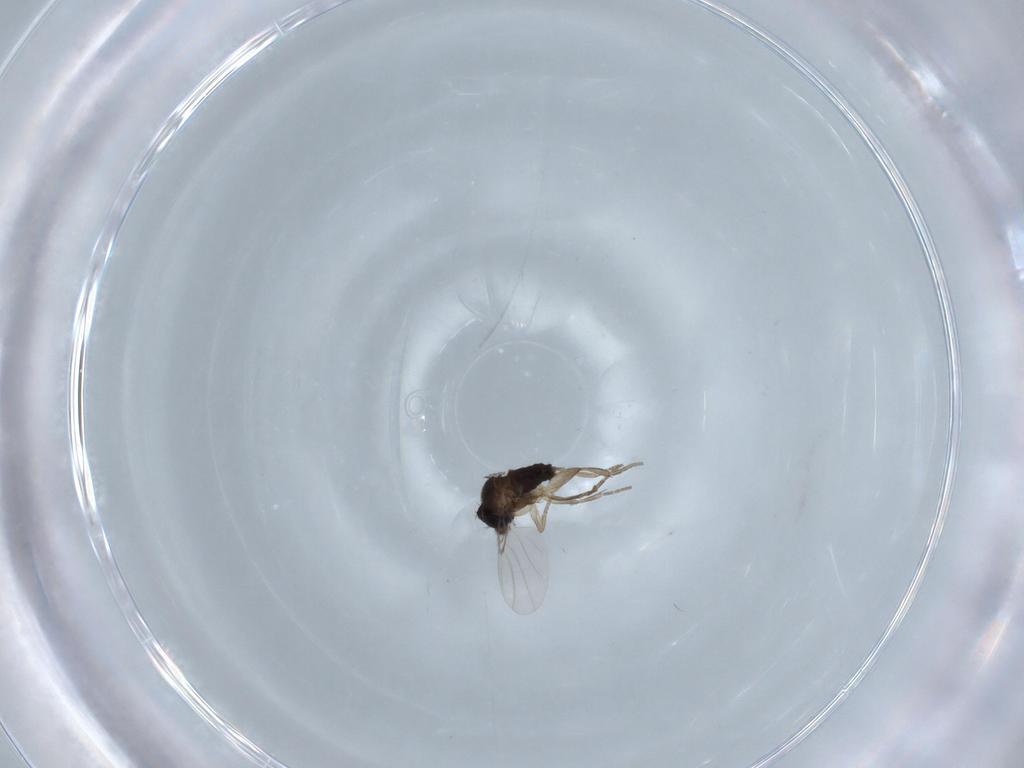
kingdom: Animalia
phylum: Arthropoda
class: Insecta
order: Diptera
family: Phoridae
